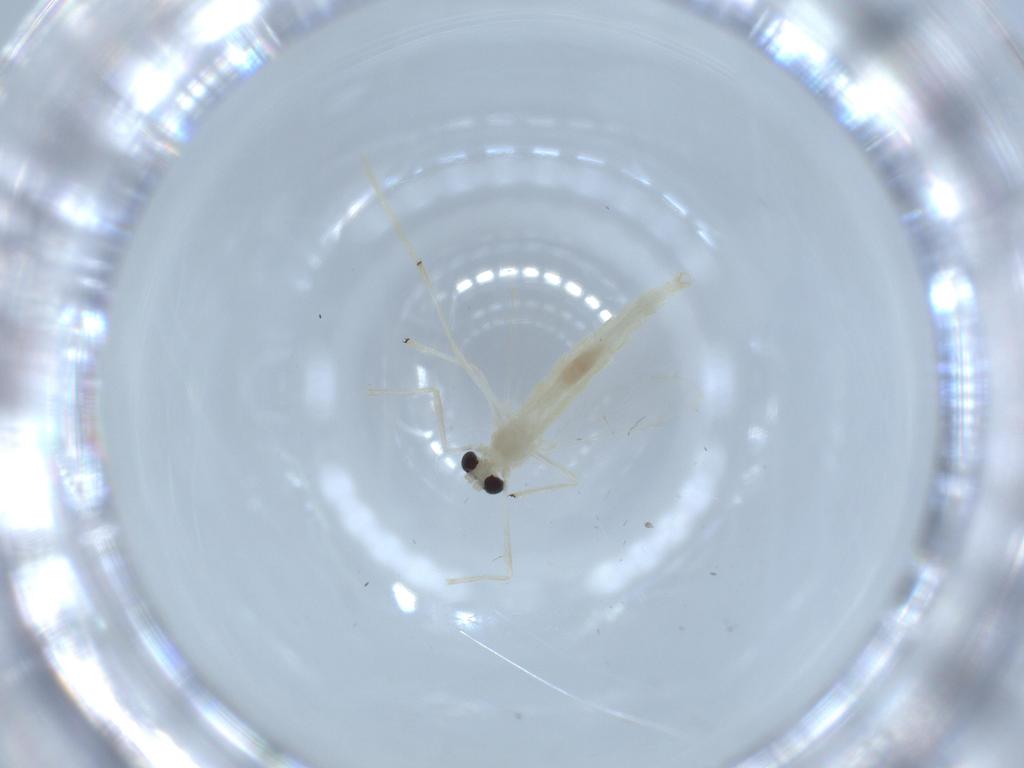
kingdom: Animalia
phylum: Arthropoda
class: Insecta
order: Diptera
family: Chironomidae
